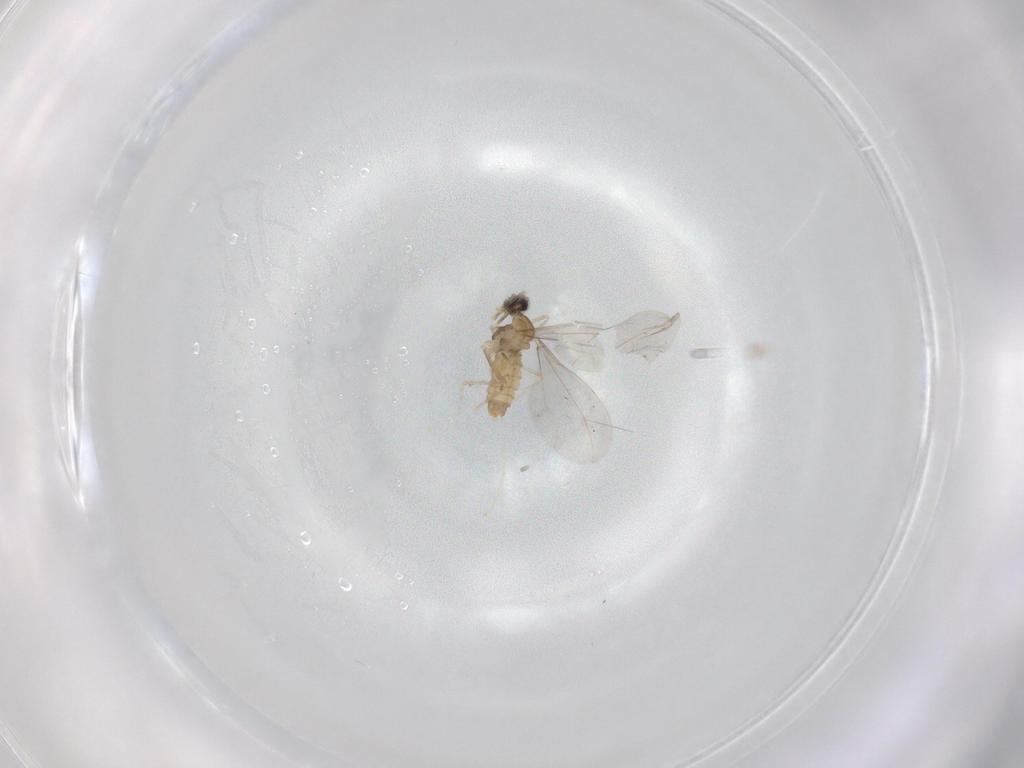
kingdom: Animalia
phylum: Arthropoda
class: Insecta
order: Diptera
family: Cecidomyiidae
